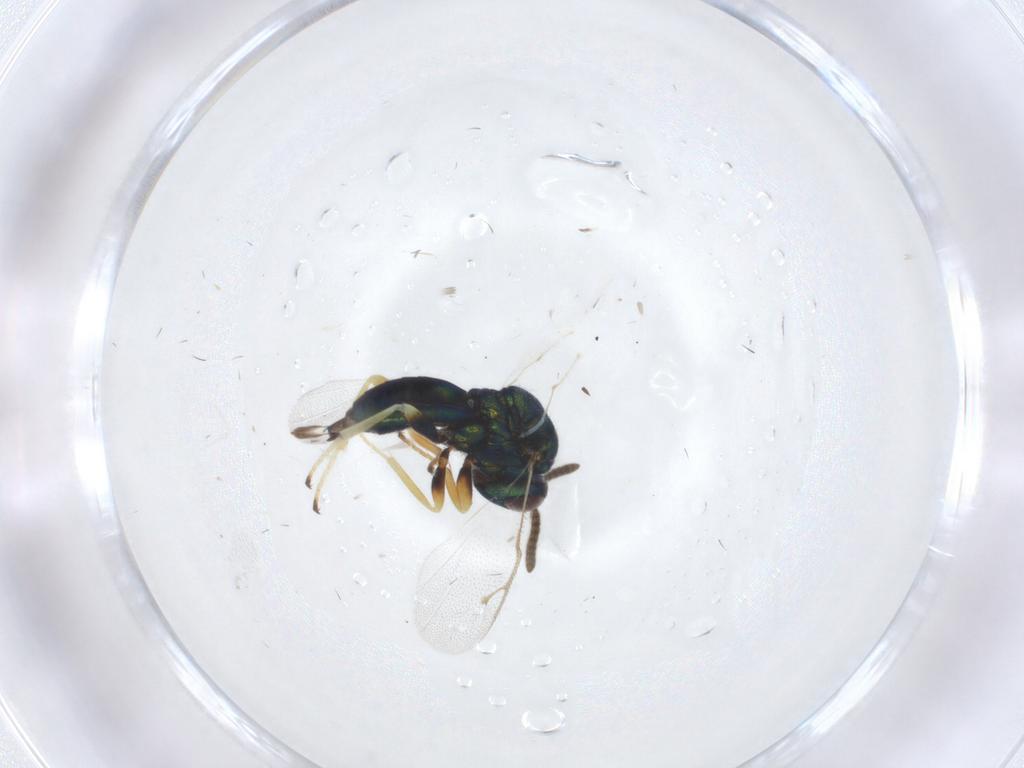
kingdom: Animalia
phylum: Arthropoda
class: Insecta
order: Hymenoptera
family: Pteromalidae
